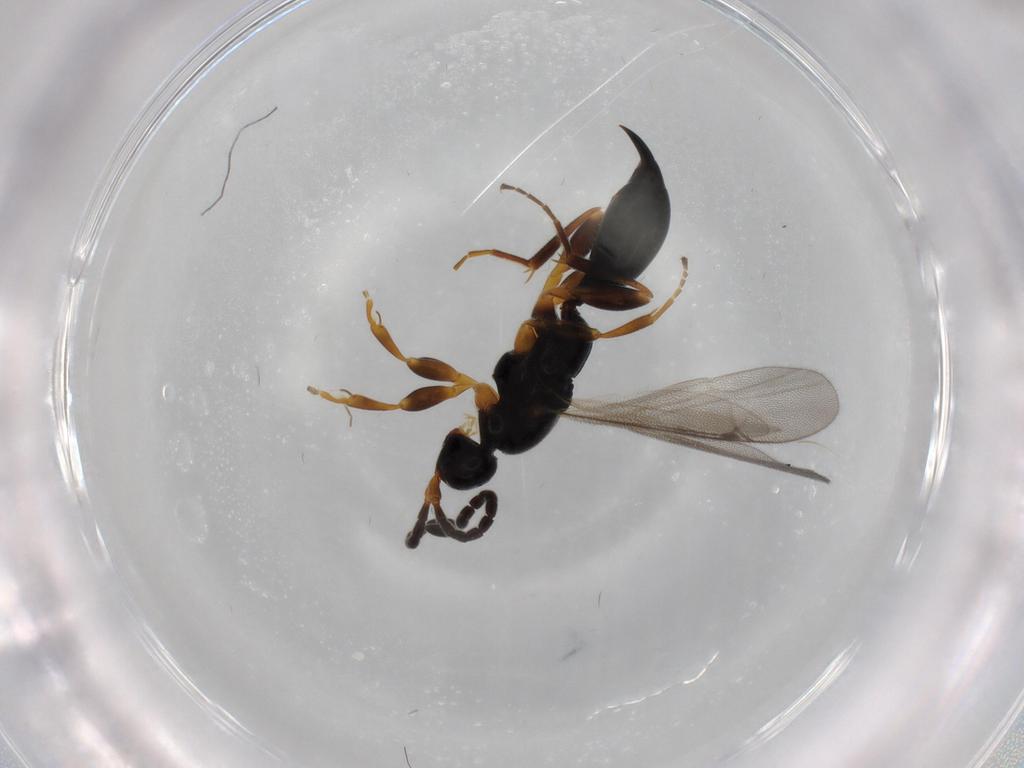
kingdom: Animalia
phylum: Arthropoda
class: Insecta
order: Hymenoptera
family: Proctotrupidae
